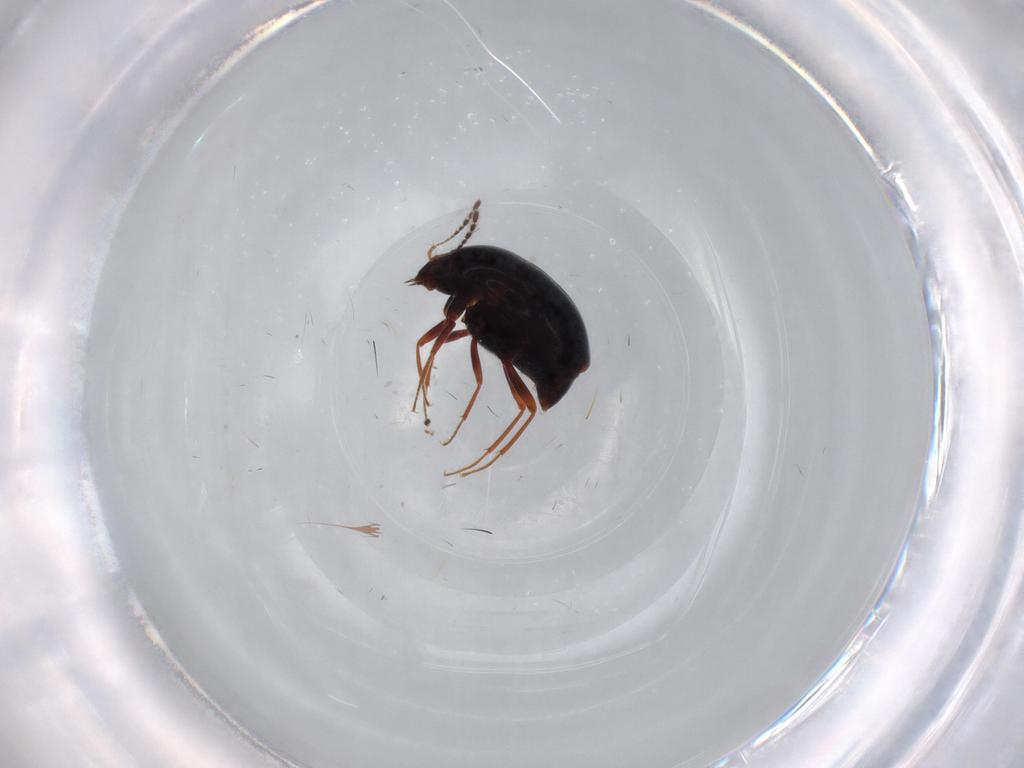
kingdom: Animalia
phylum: Arthropoda
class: Insecta
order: Coleoptera
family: Staphylinidae
